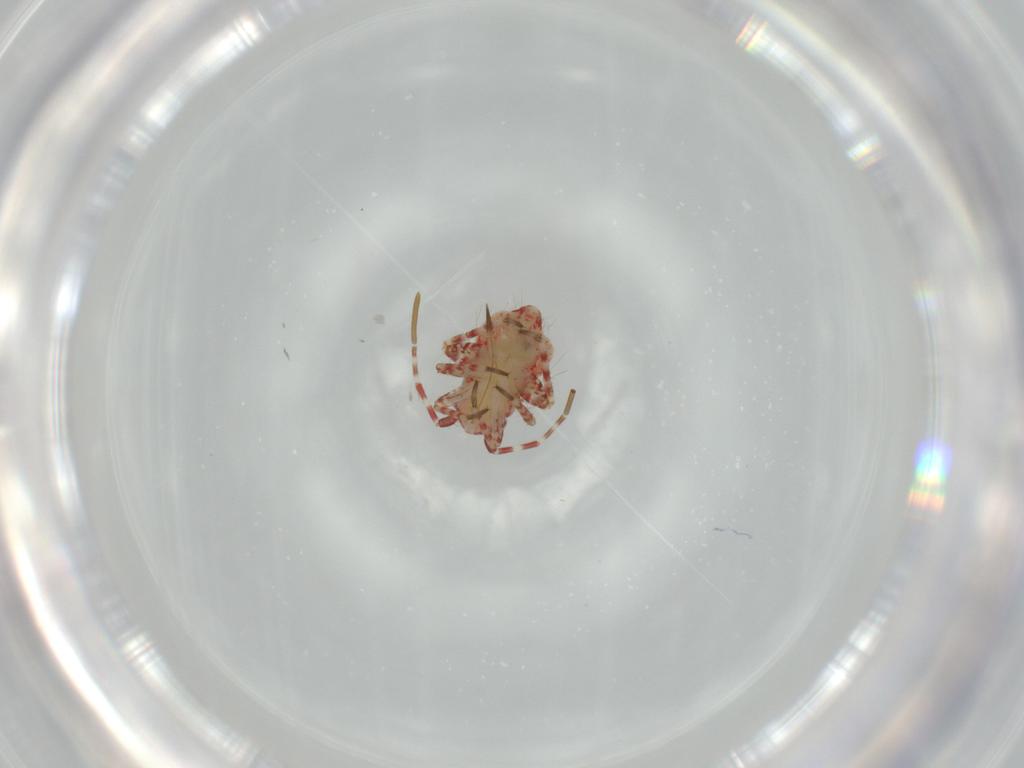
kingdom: Animalia
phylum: Arthropoda
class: Insecta
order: Hemiptera
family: Miridae
